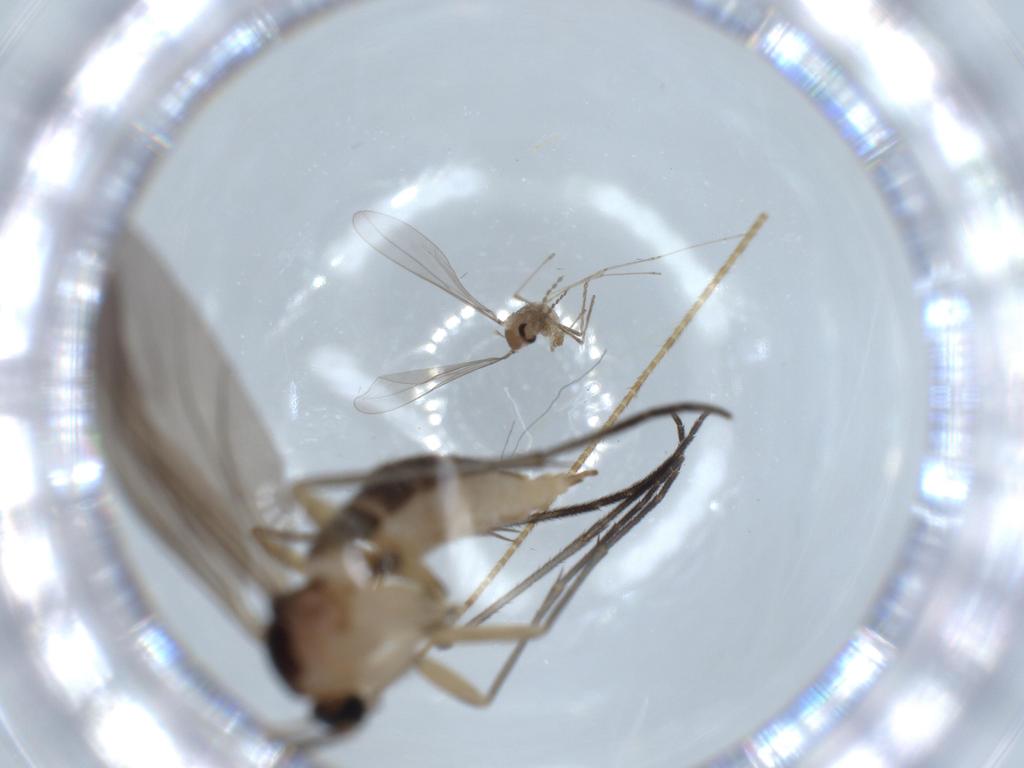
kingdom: Animalia
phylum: Arthropoda
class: Insecta
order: Diptera
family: Sciaridae
